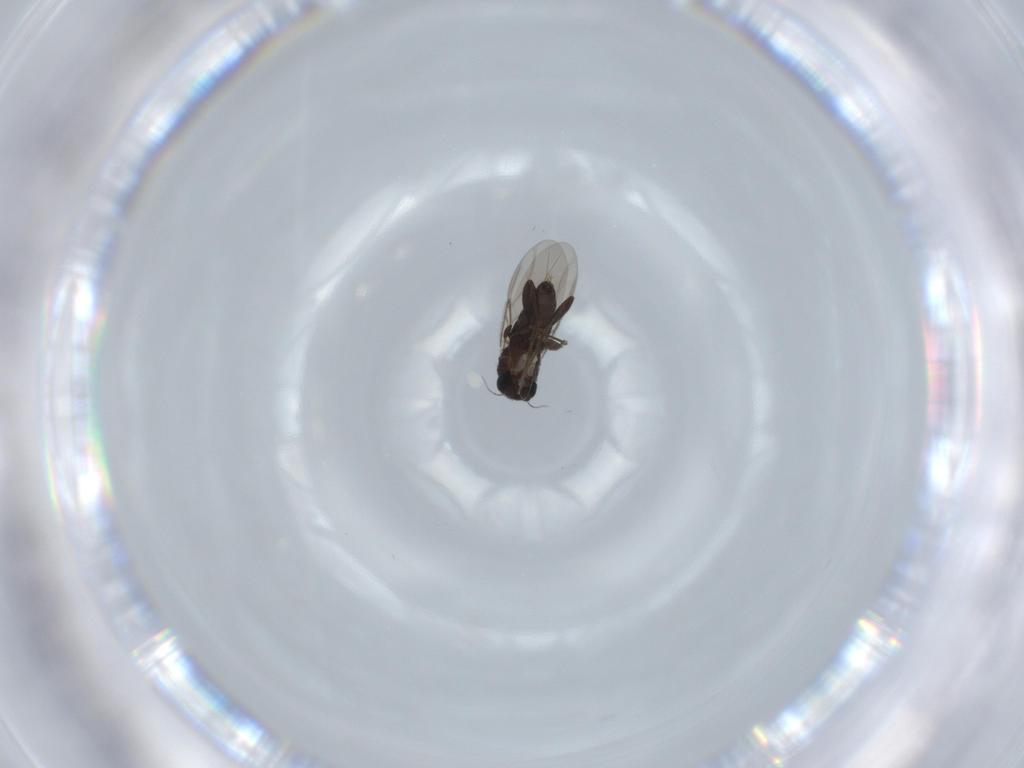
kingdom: Animalia
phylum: Arthropoda
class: Insecta
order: Diptera
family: Phoridae
